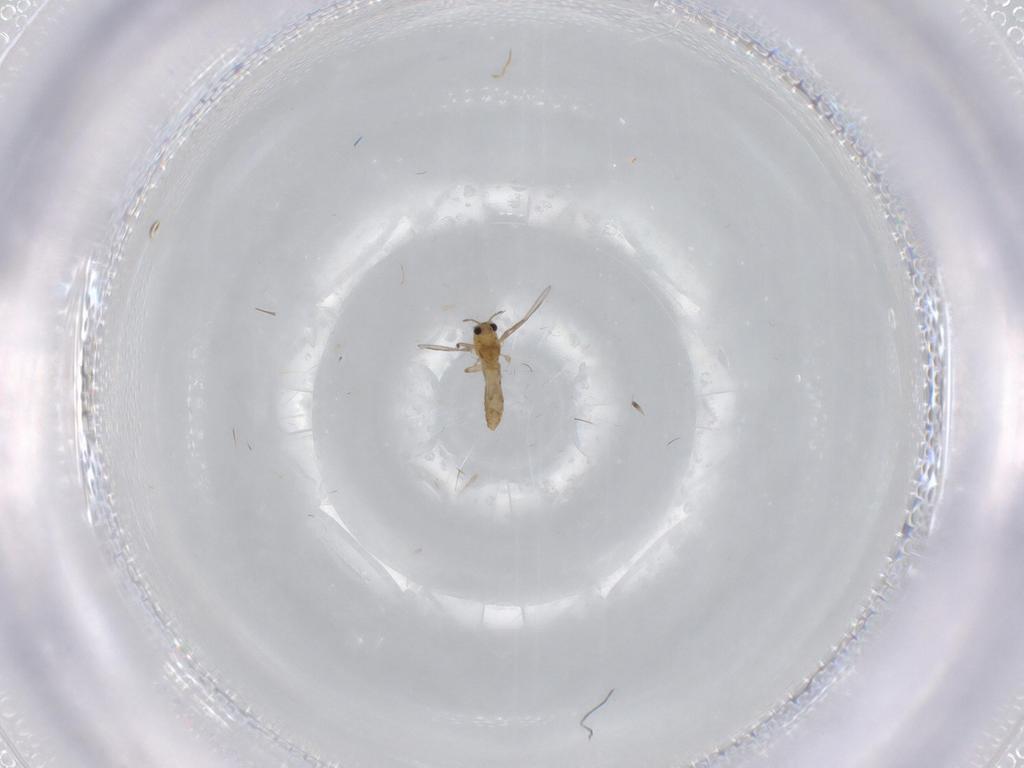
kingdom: Animalia
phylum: Arthropoda
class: Insecta
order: Diptera
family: Chironomidae
